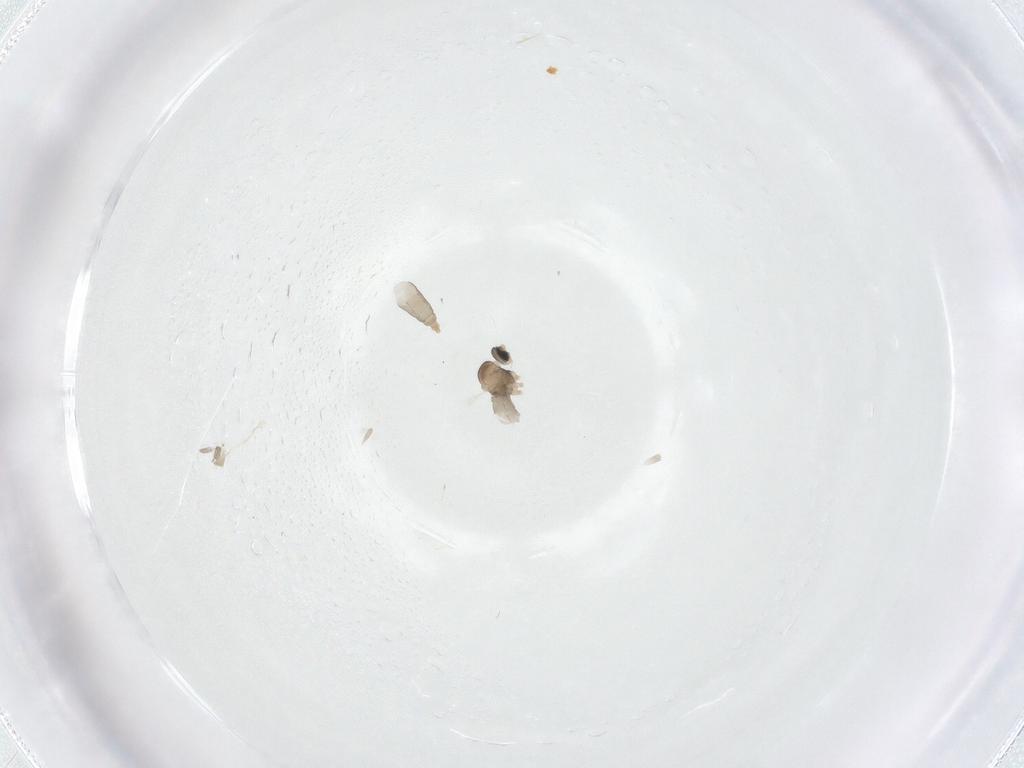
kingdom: Animalia
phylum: Arthropoda
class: Insecta
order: Diptera
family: Cecidomyiidae
